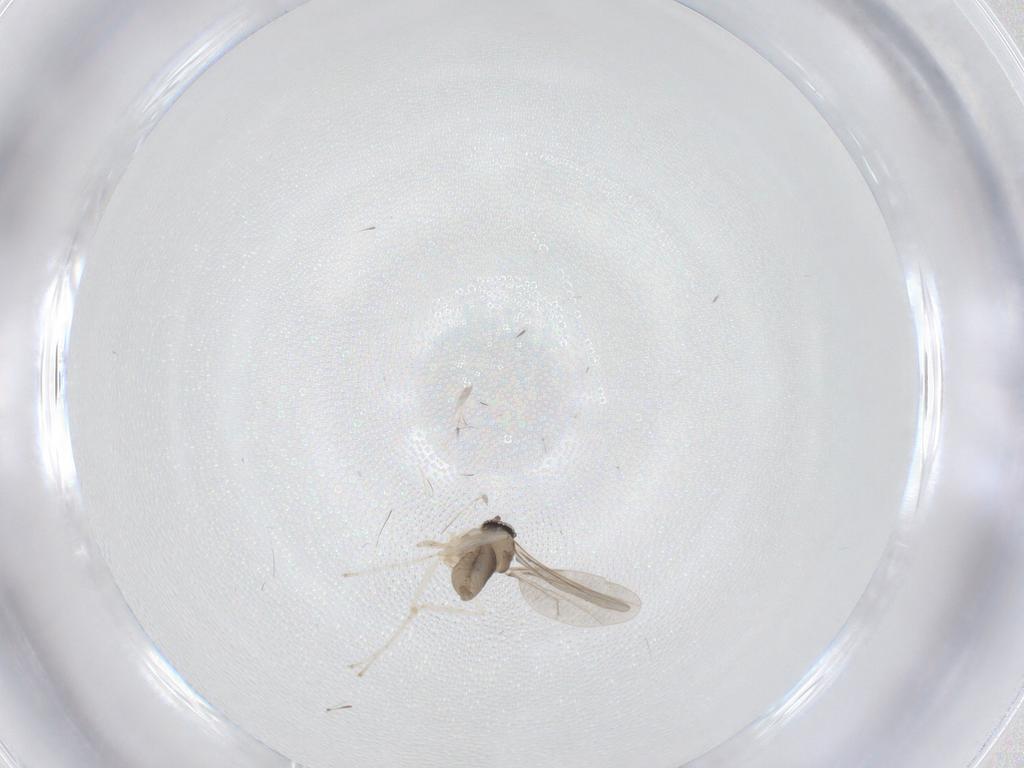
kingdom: Animalia
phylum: Arthropoda
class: Insecta
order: Diptera
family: Cecidomyiidae
